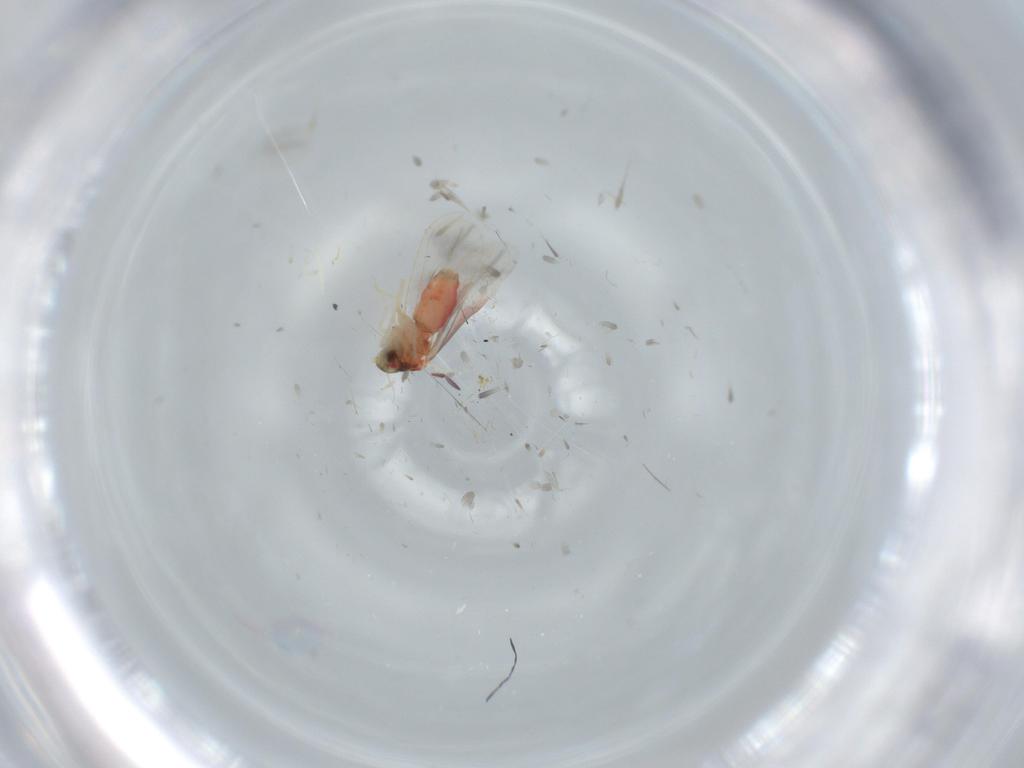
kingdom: Animalia
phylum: Arthropoda
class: Insecta
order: Hemiptera
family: Aleyrodidae
